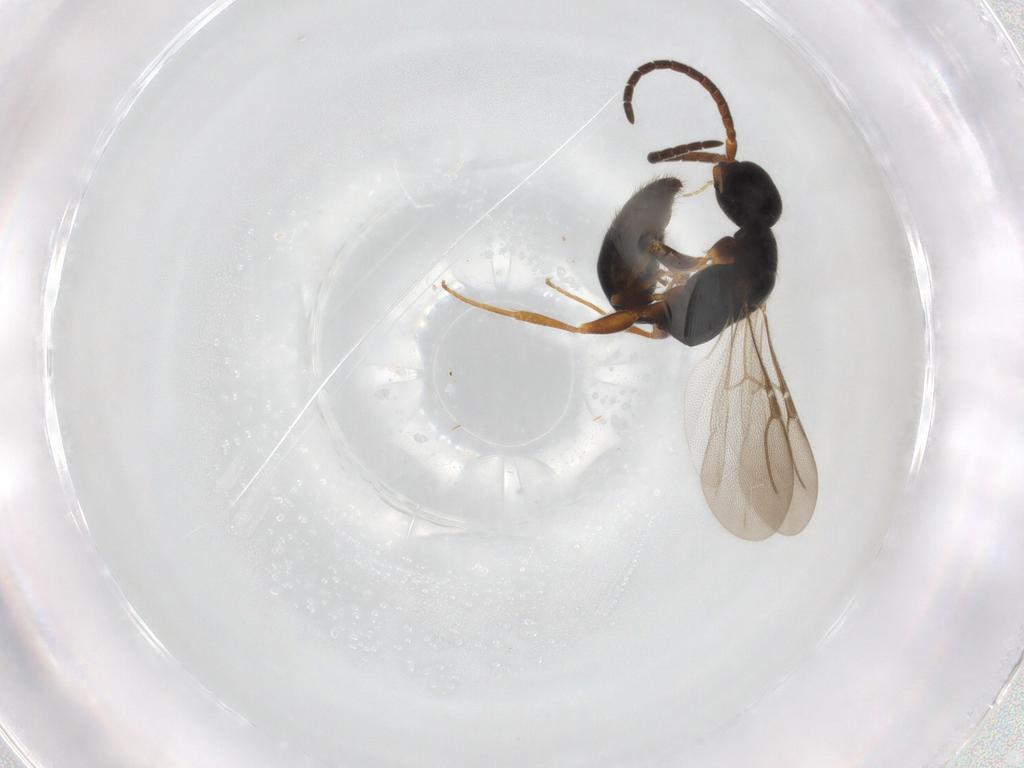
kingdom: Animalia
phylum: Arthropoda
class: Insecta
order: Hymenoptera
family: Bethylidae
